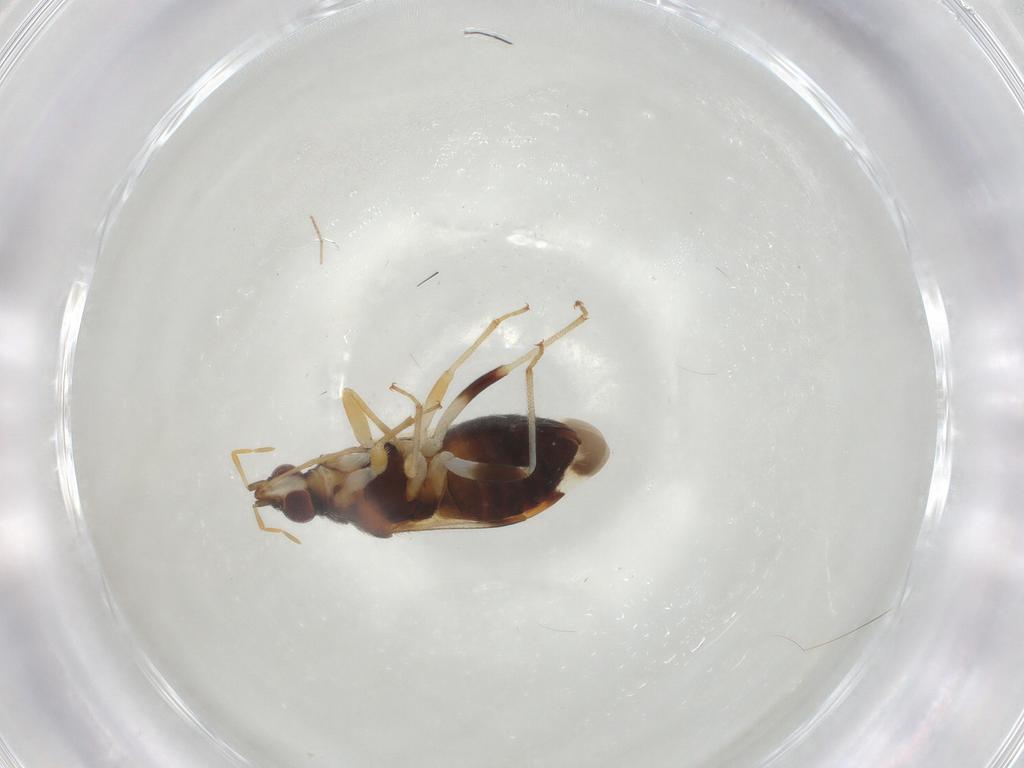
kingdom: Animalia
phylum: Arthropoda
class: Insecta
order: Hemiptera
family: Miridae
